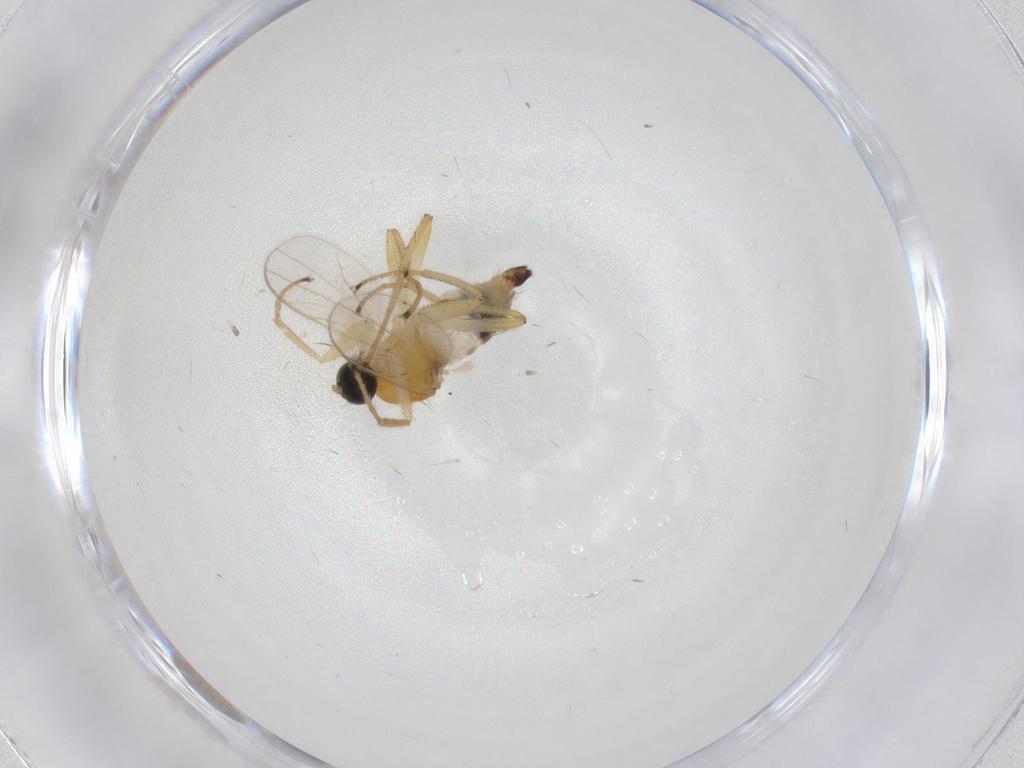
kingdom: Animalia
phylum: Arthropoda
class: Insecta
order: Diptera
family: Hybotidae
